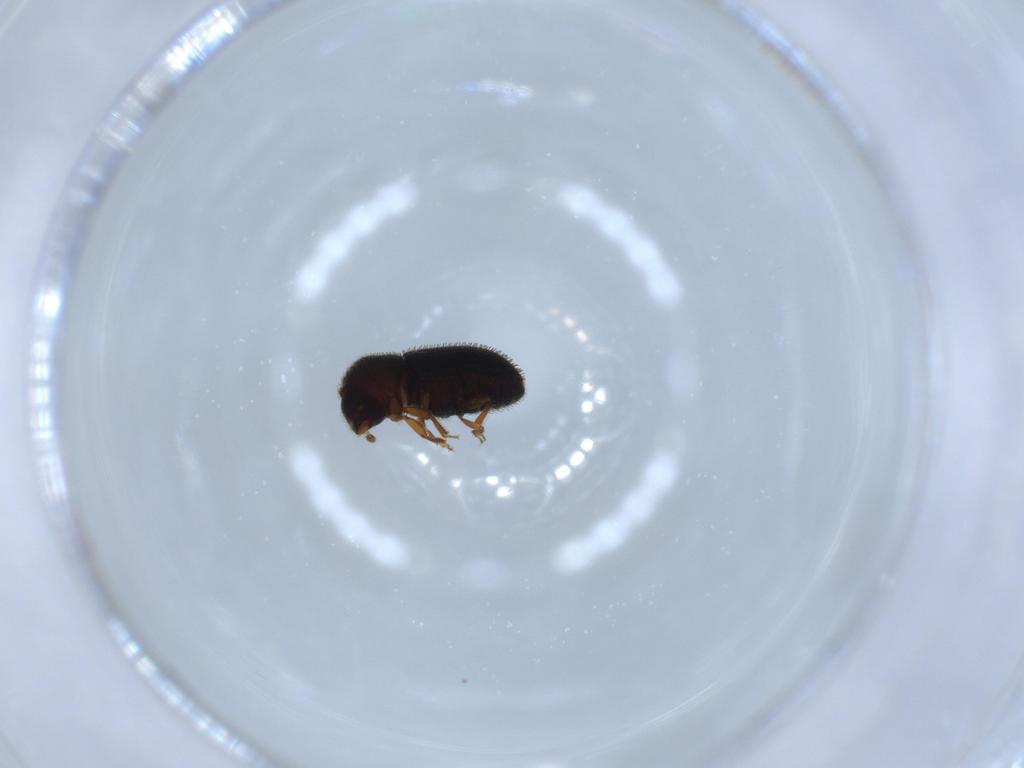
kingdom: Animalia
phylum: Arthropoda
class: Insecta
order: Coleoptera
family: Curculionidae
